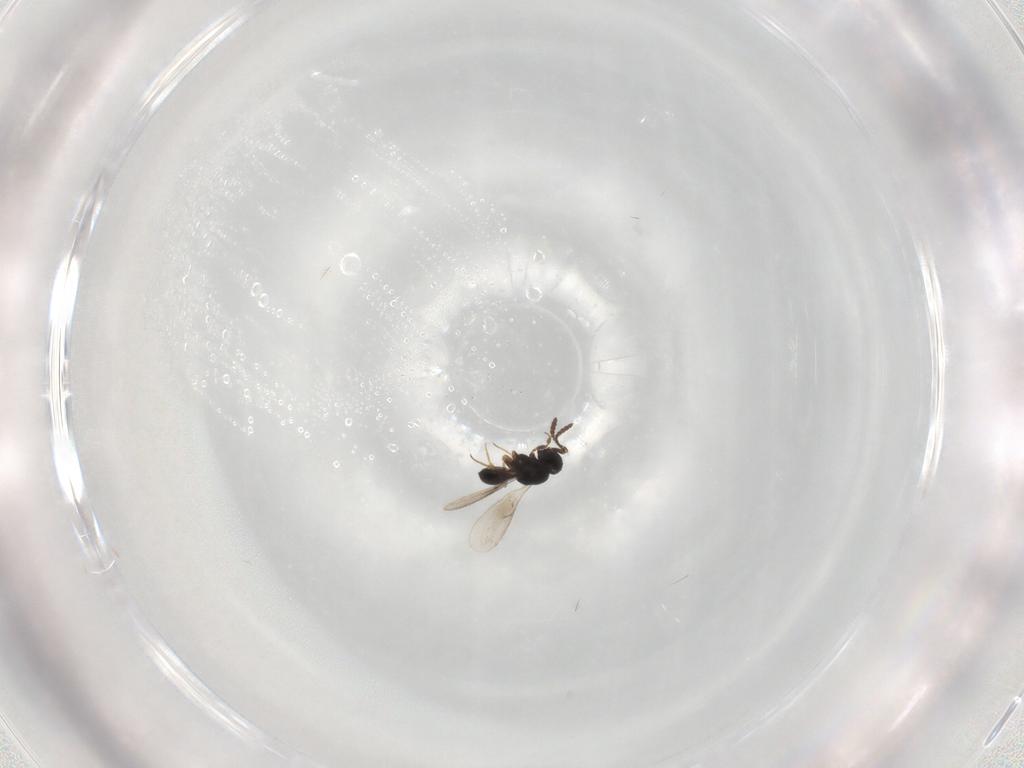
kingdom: Animalia
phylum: Arthropoda
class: Insecta
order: Hymenoptera
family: Scelionidae
